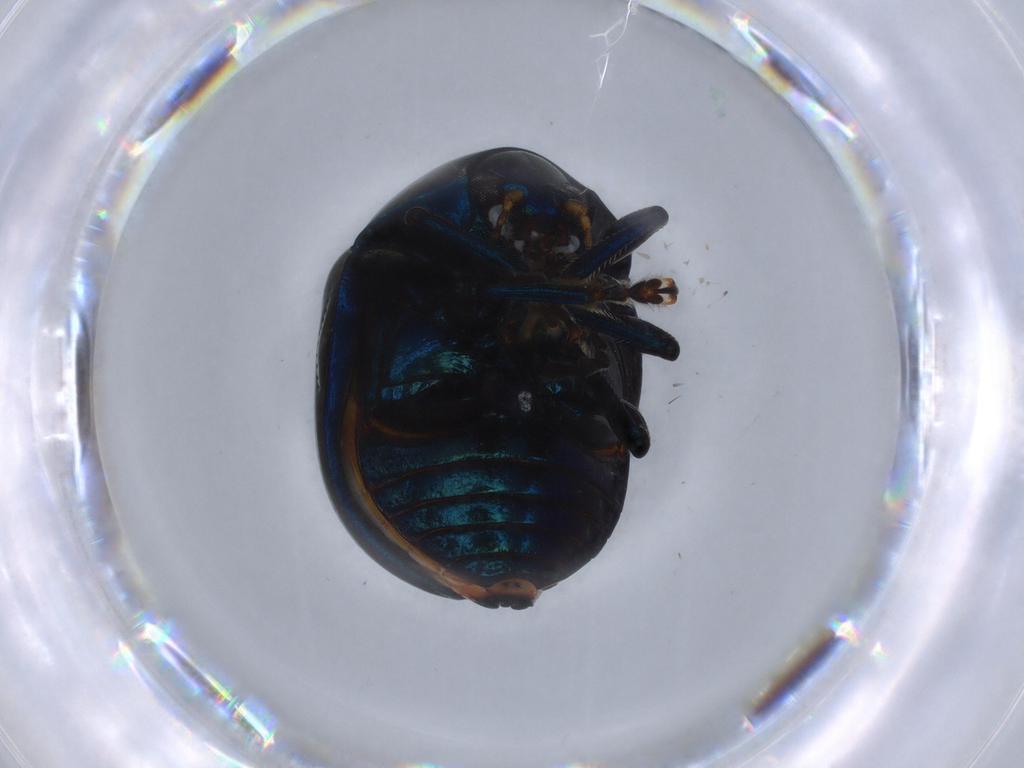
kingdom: Animalia
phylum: Arthropoda
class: Insecta
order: Coleoptera
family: Chrysomelidae
